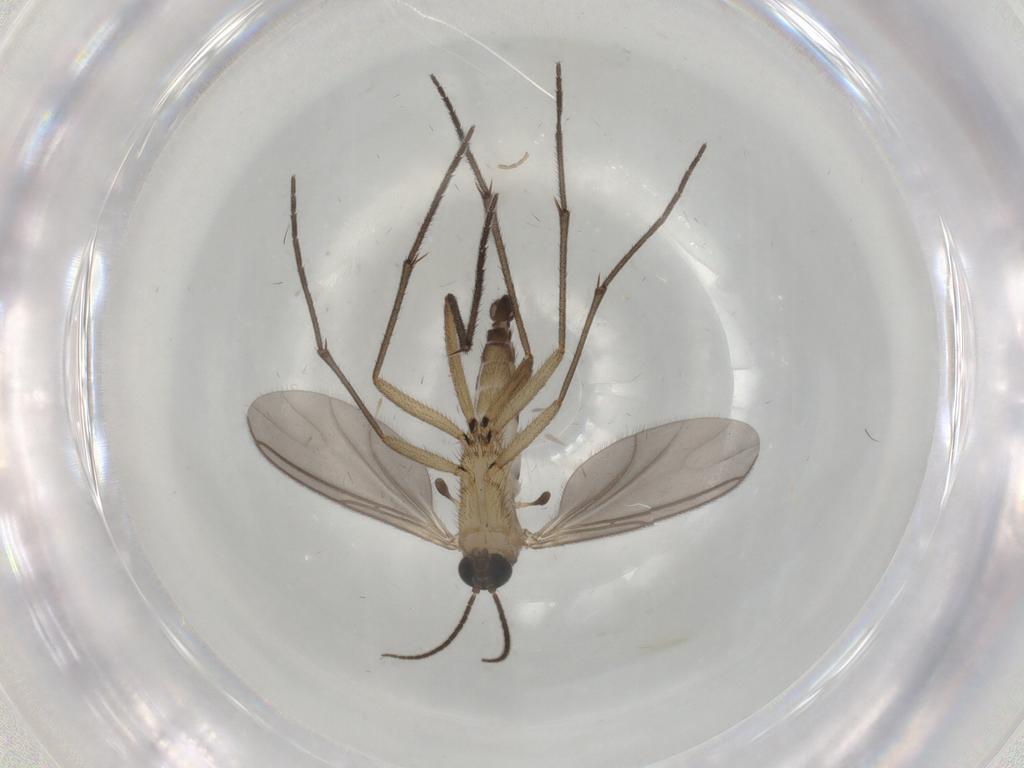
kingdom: Animalia
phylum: Arthropoda
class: Insecta
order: Diptera
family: Sciaridae
